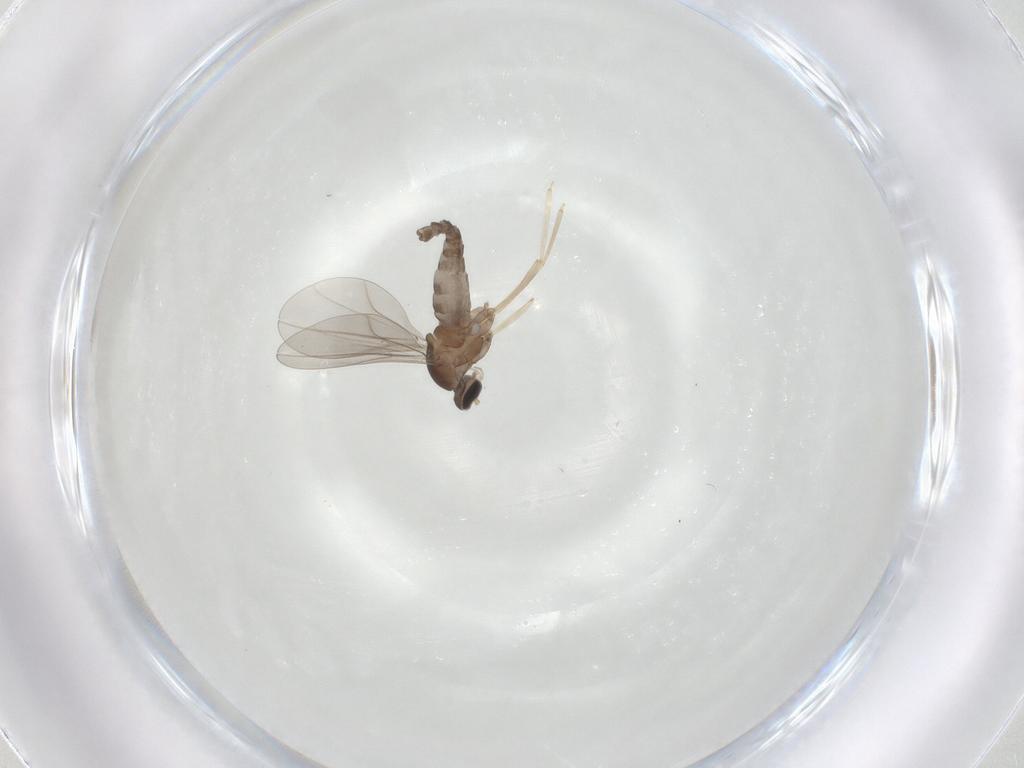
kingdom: Animalia
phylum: Arthropoda
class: Insecta
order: Diptera
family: Cecidomyiidae
